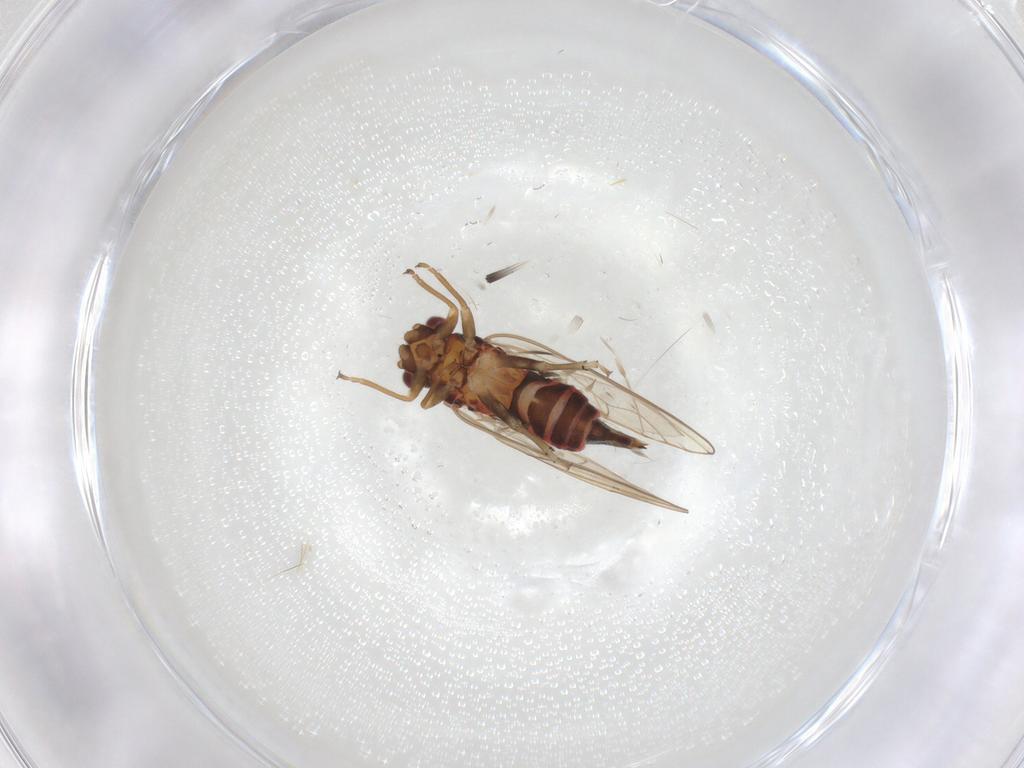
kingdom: Animalia
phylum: Arthropoda
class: Insecta
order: Hemiptera
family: Psyllidae
